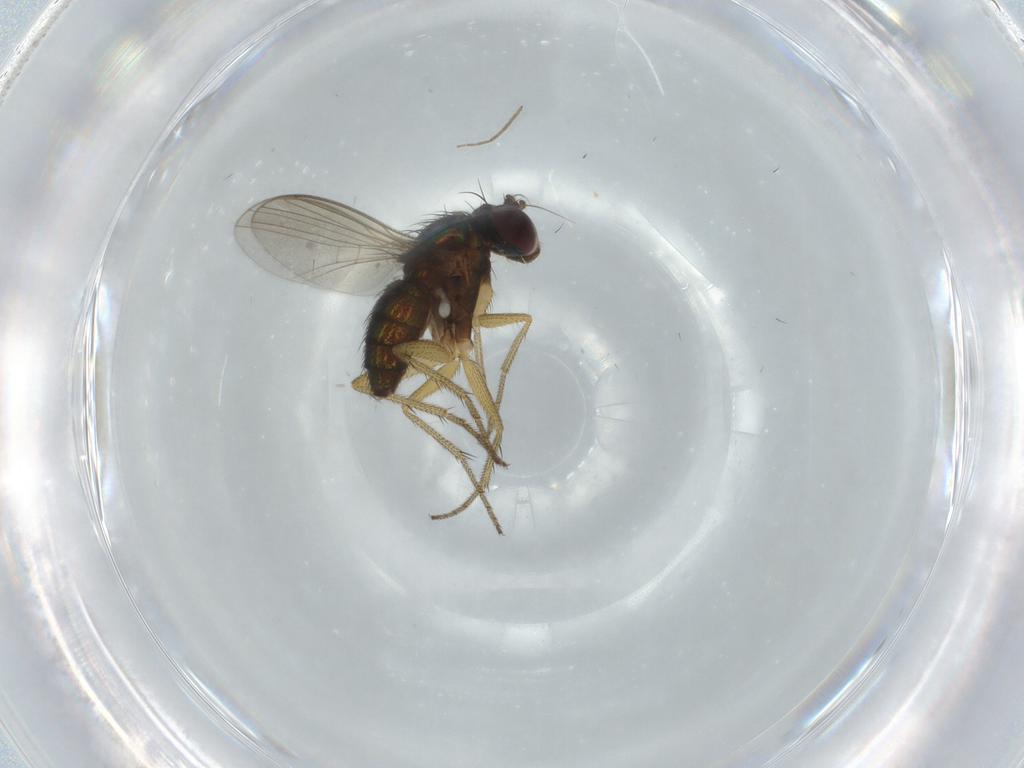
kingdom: Animalia
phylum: Arthropoda
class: Insecta
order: Diptera
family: Dolichopodidae
